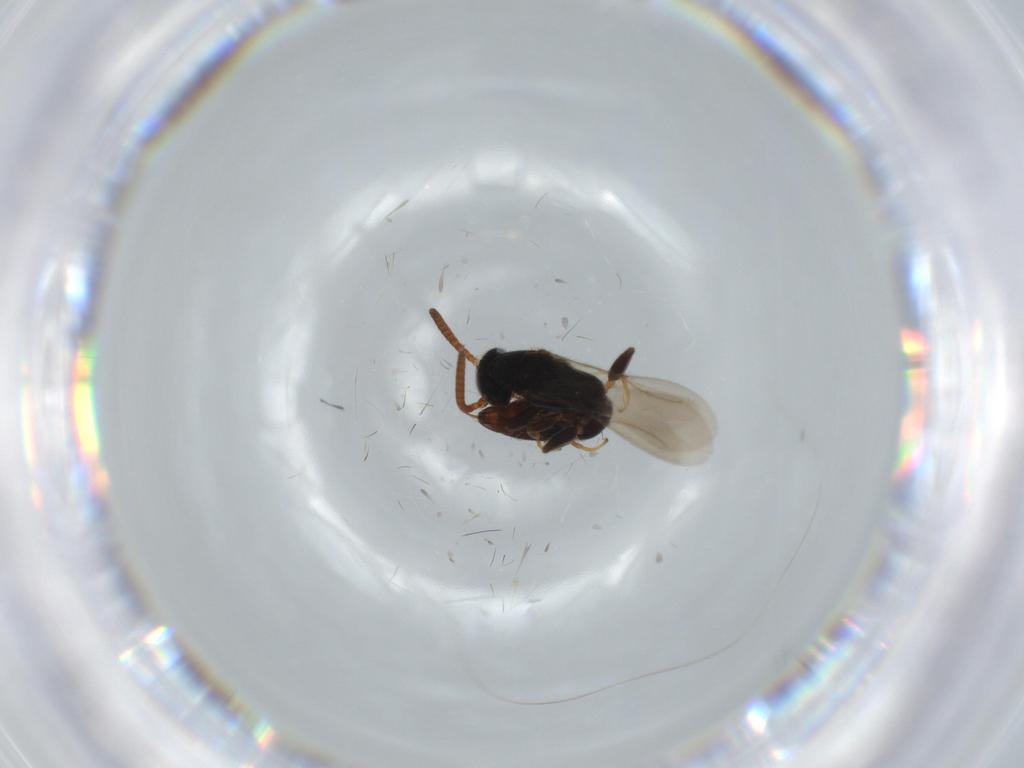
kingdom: Animalia
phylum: Arthropoda
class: Insecta
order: Hymenoptera
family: Bethylidae
